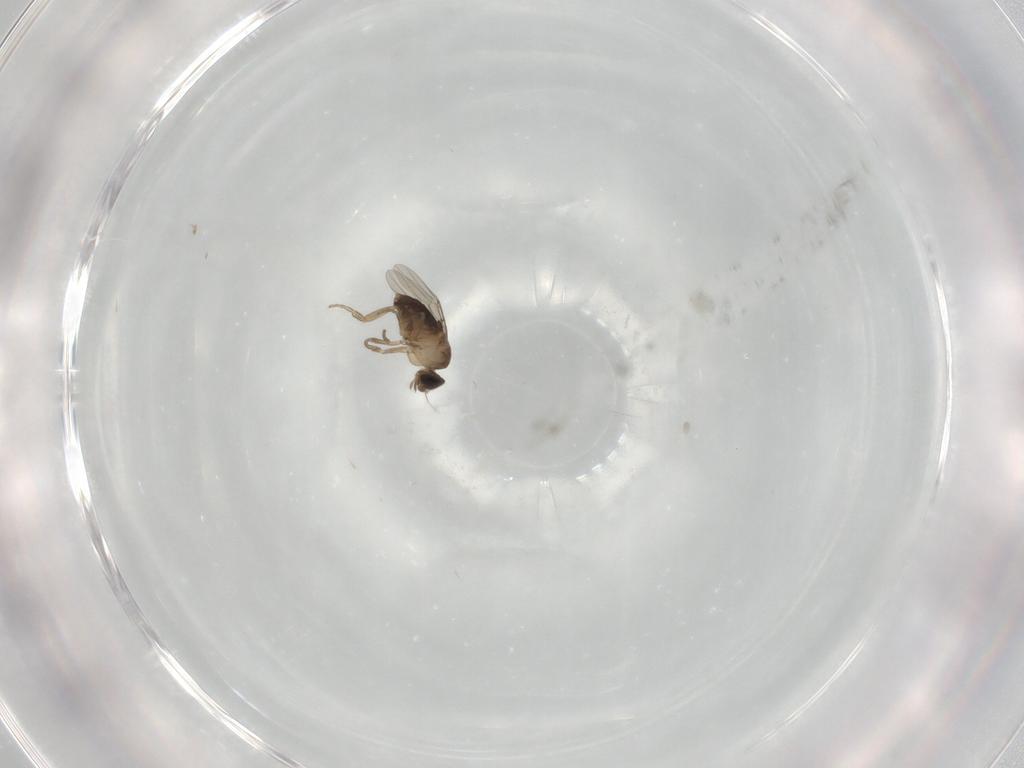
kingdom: Animalia
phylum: Arthropoda
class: Insecta
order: Diptera
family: Phoridae
